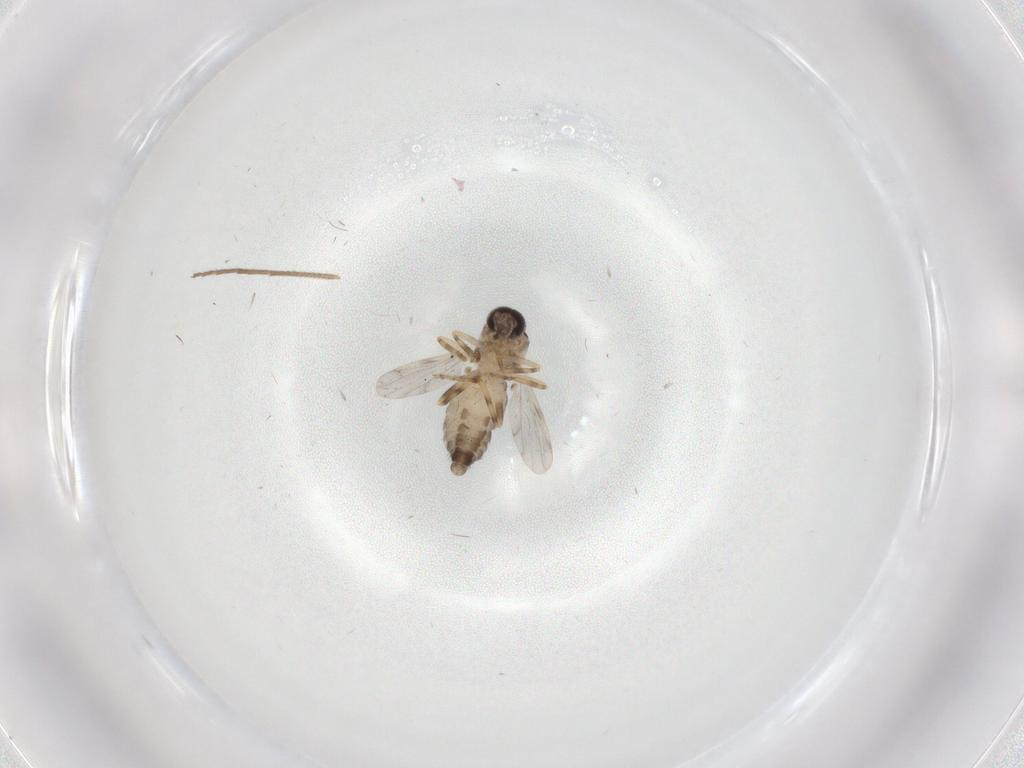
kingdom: Animalia
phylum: Arthropoda
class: Insecta
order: Diptera
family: Ceratopogonidae
